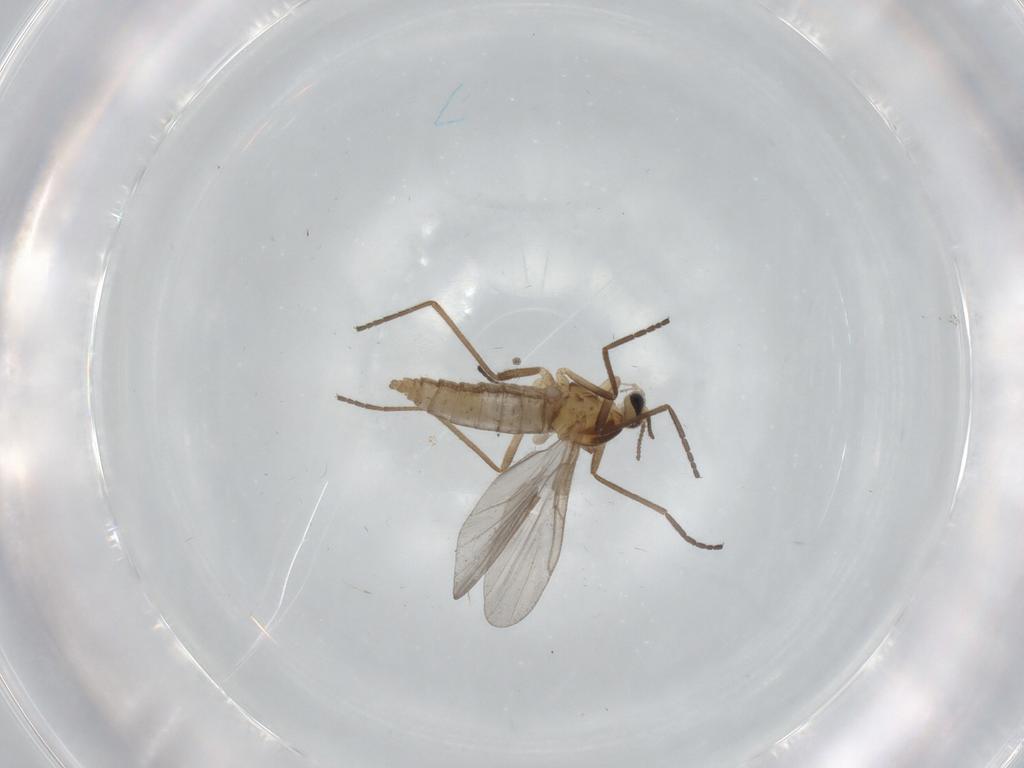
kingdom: Animalia
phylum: Arthropoda
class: Insecta
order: Diptera
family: Cecidomyiidae
